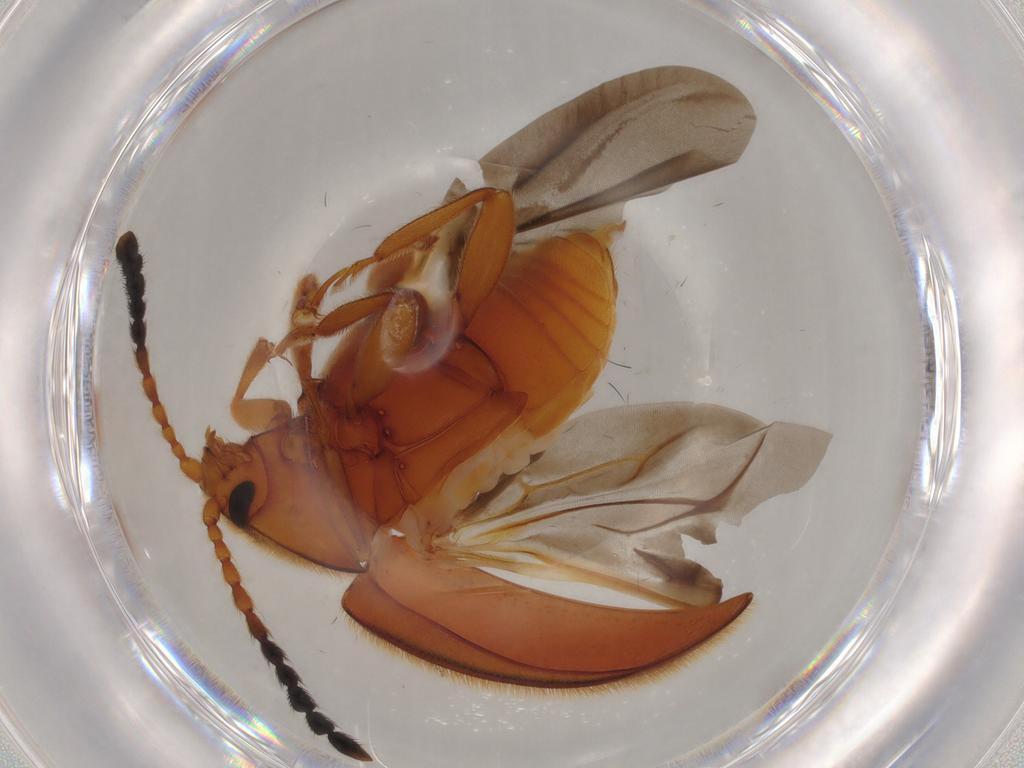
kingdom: Animalia
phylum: Arthropoda
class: Insecta
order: Coleoptera
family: Endomychidae
